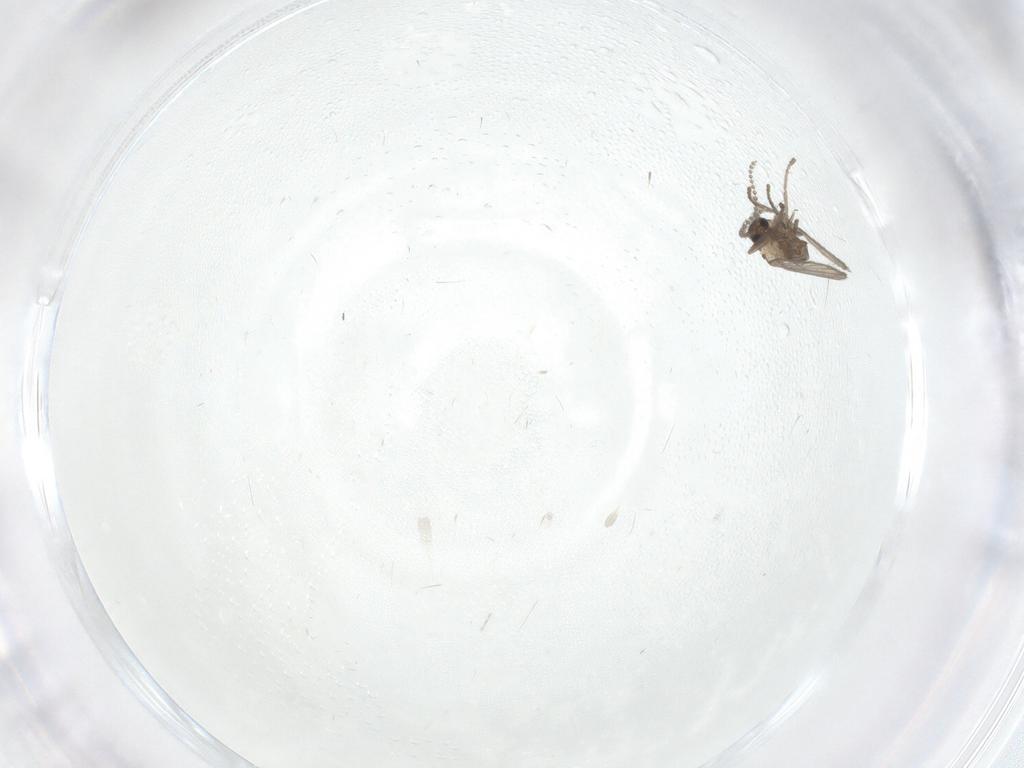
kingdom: Animalia
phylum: Arthropoda
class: Insecta
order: Diptera
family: Psychodidae
